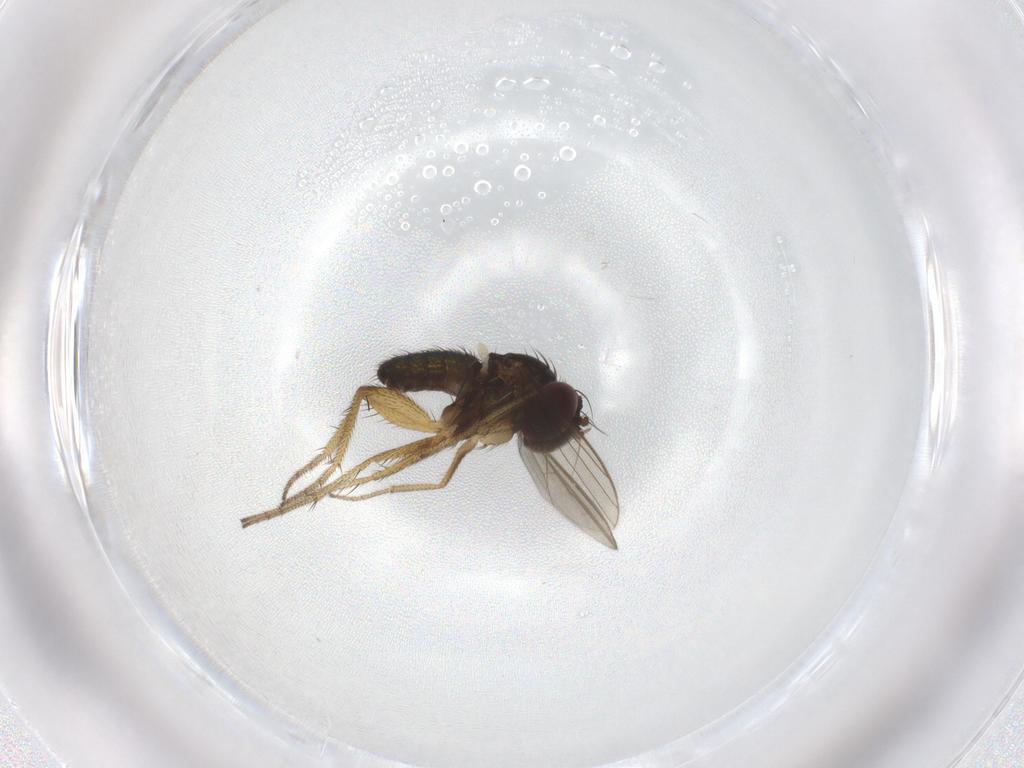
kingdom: Animalia
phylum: Arthropoda
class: Insecta
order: Diptera
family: Sciaridae
